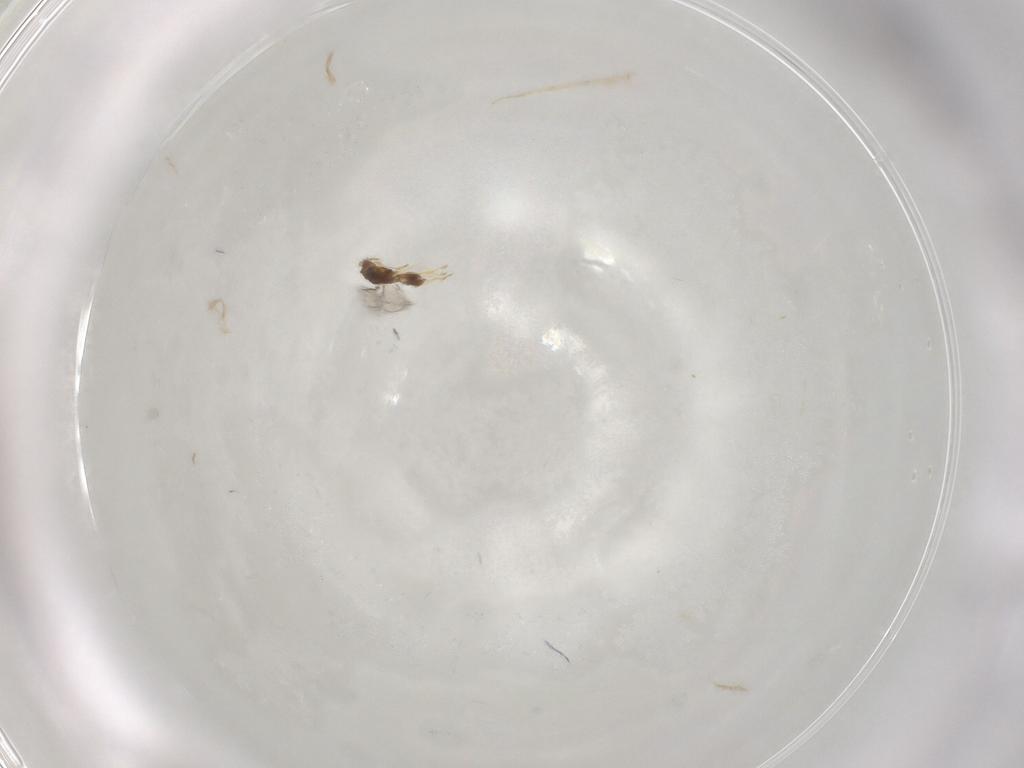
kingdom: Animalia
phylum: Arthropoda
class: Insecta
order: Hymenoptera
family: Eulophidae
